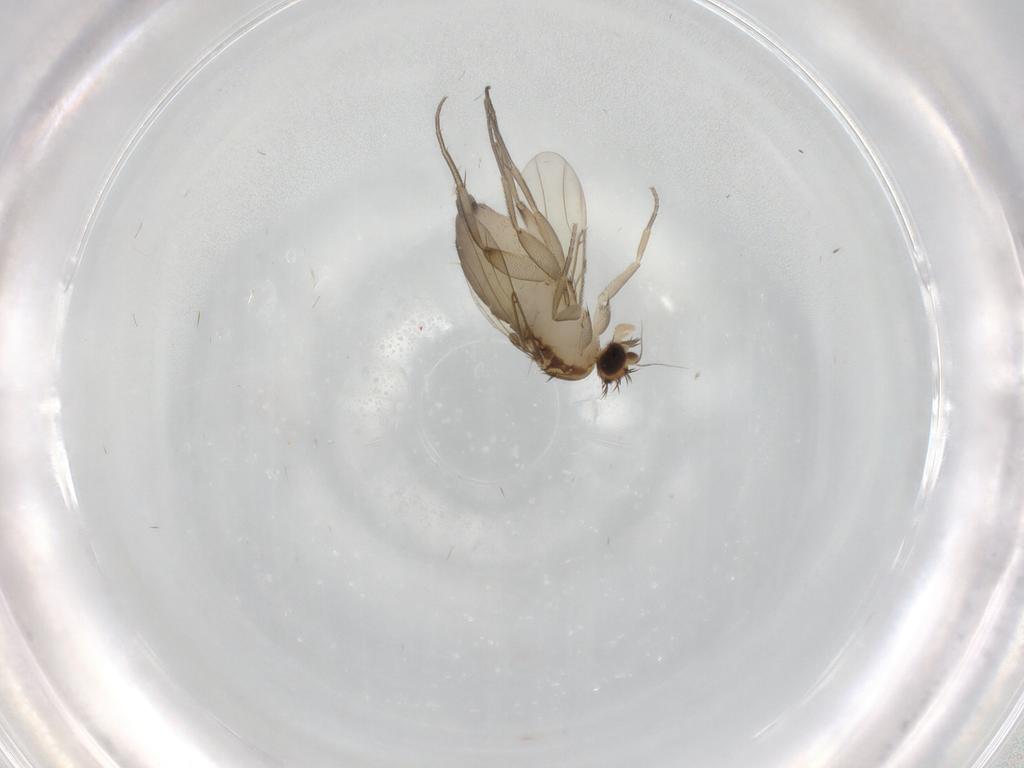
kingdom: Animalia
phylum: Arthropoda
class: Insecta
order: Diptera
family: Phoridae
